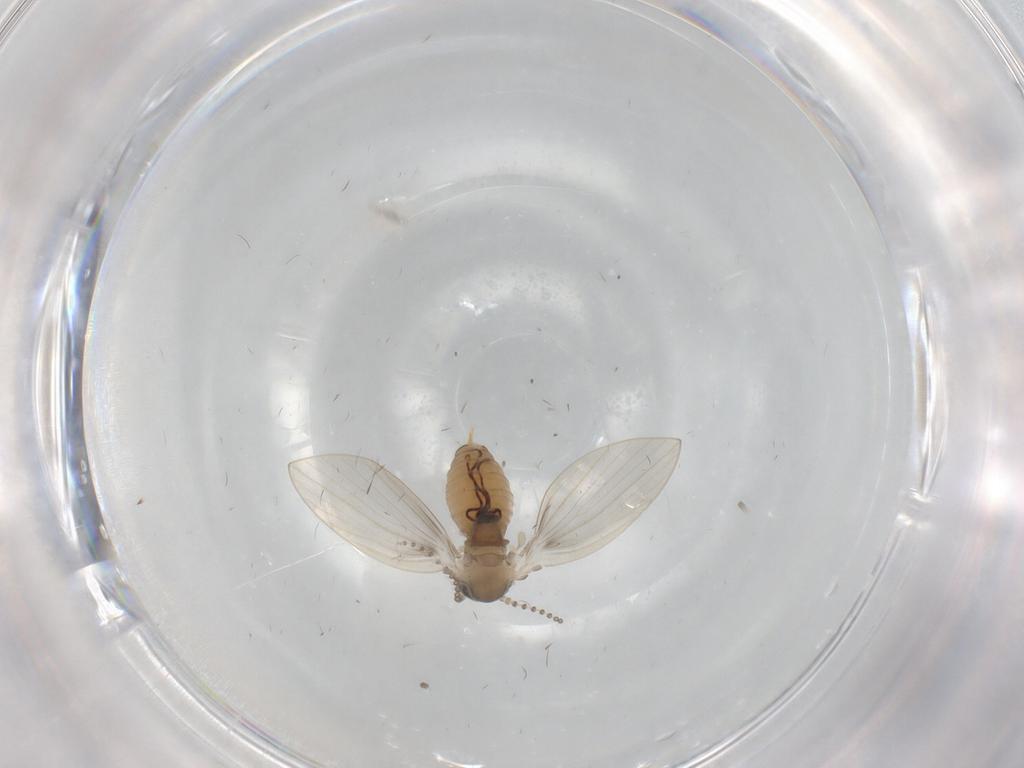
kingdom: Animalia
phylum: Arthropoda
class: Insecta
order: Diptera
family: Psychodidae
